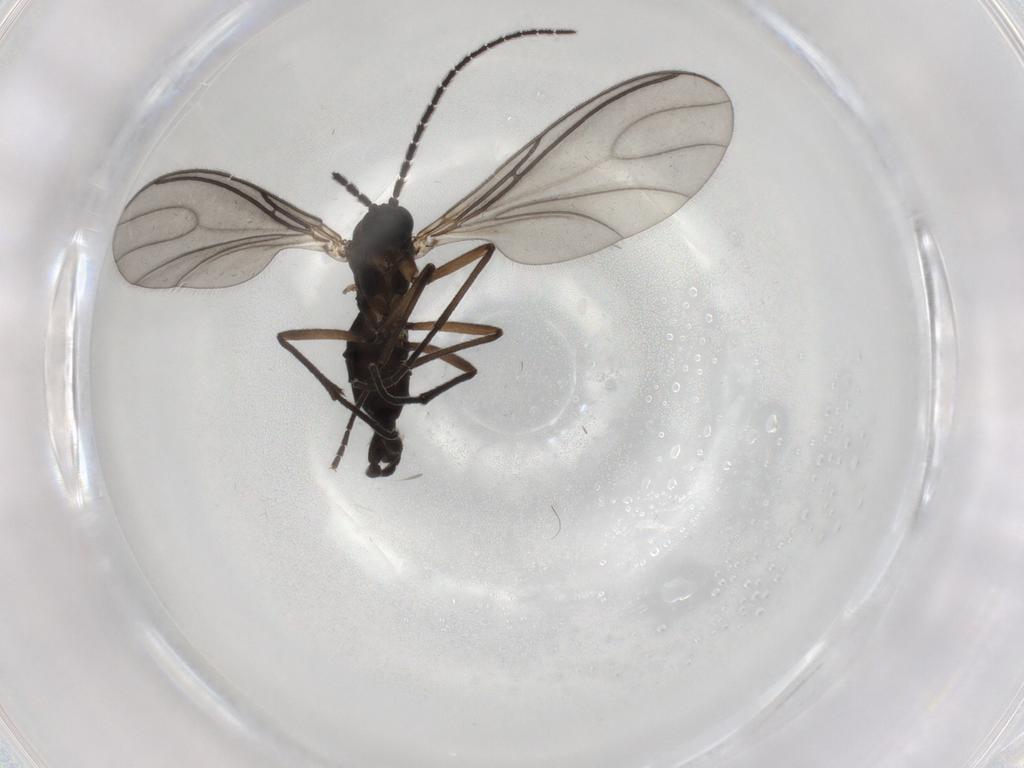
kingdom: Animalia
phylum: Arthropoda
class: Insecta
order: Diptera
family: Sciaridae
